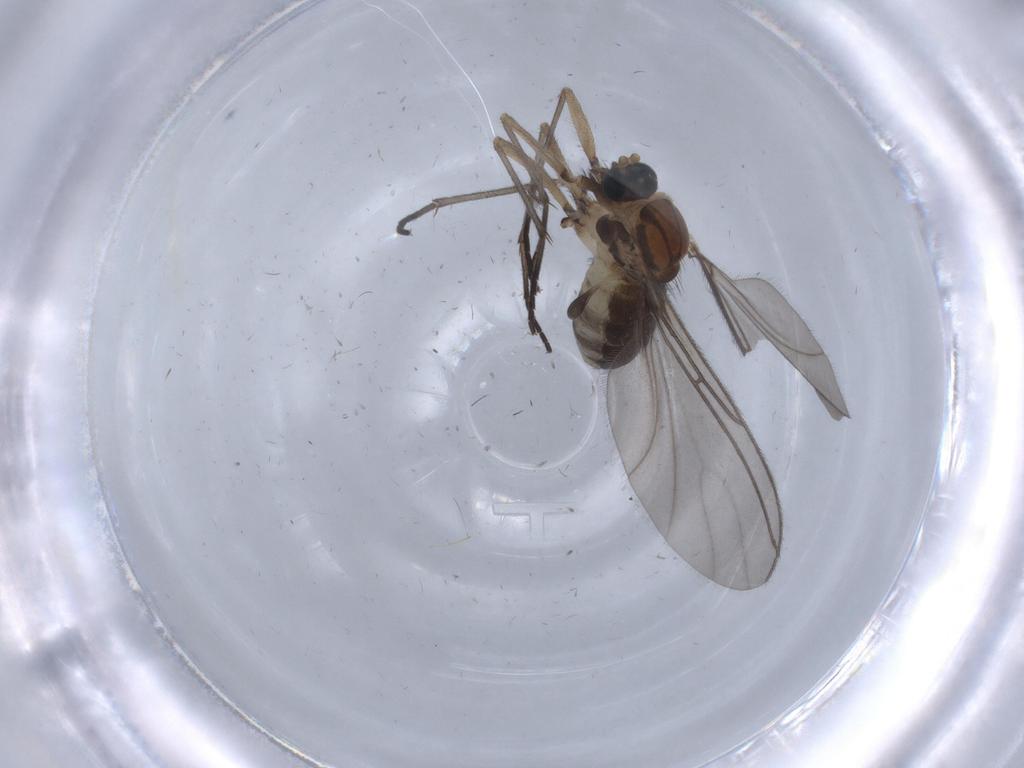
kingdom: Animalia
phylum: Arthropoda
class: Insecta
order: Diptera
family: Sciaridae
